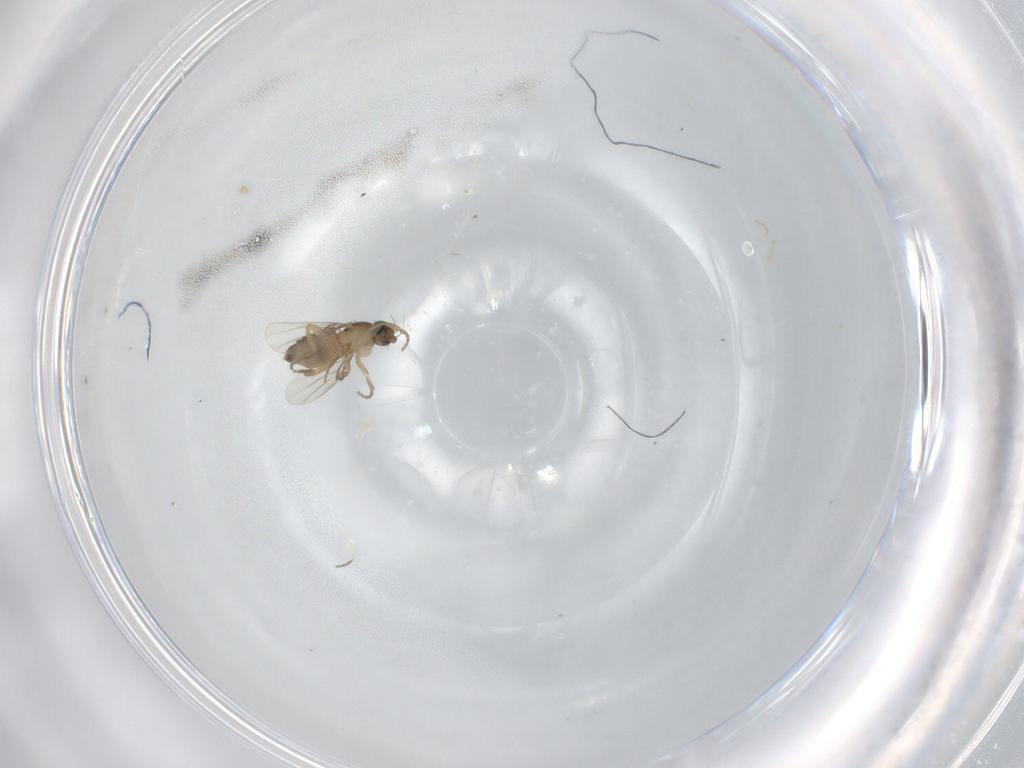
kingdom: Animalia
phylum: Arthropoda
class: Insecta
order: Diptera
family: Phoridae
